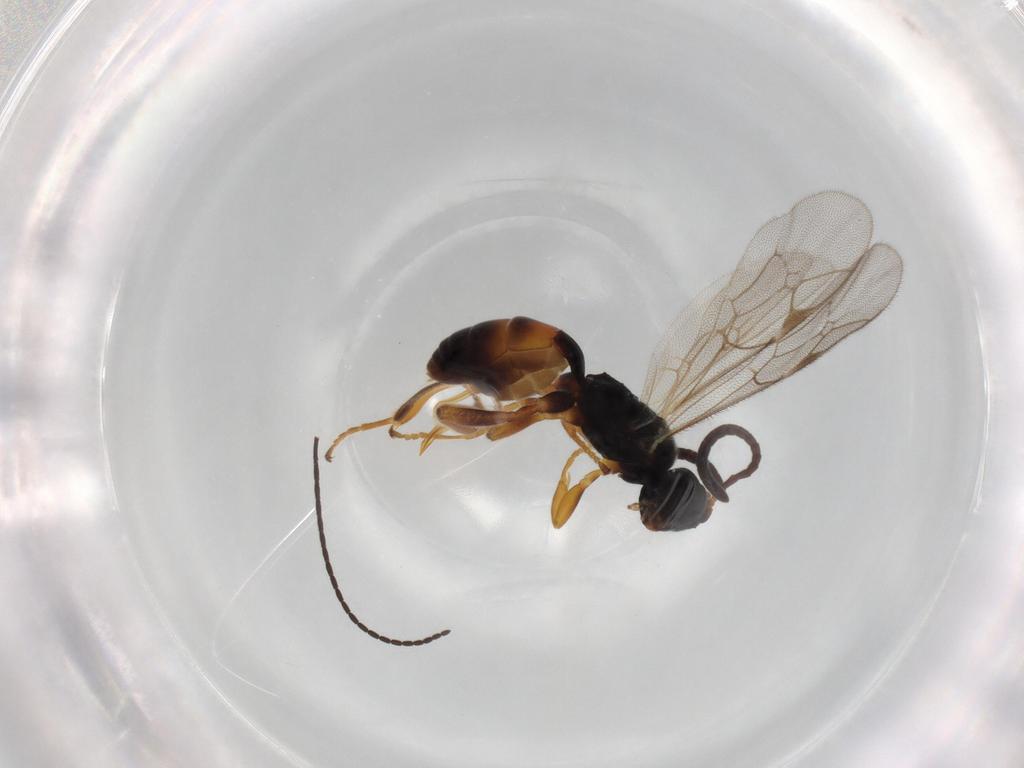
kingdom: Animalia
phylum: Arthropoda
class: Insecta
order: Hymenoptera
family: Ichneumonidae
